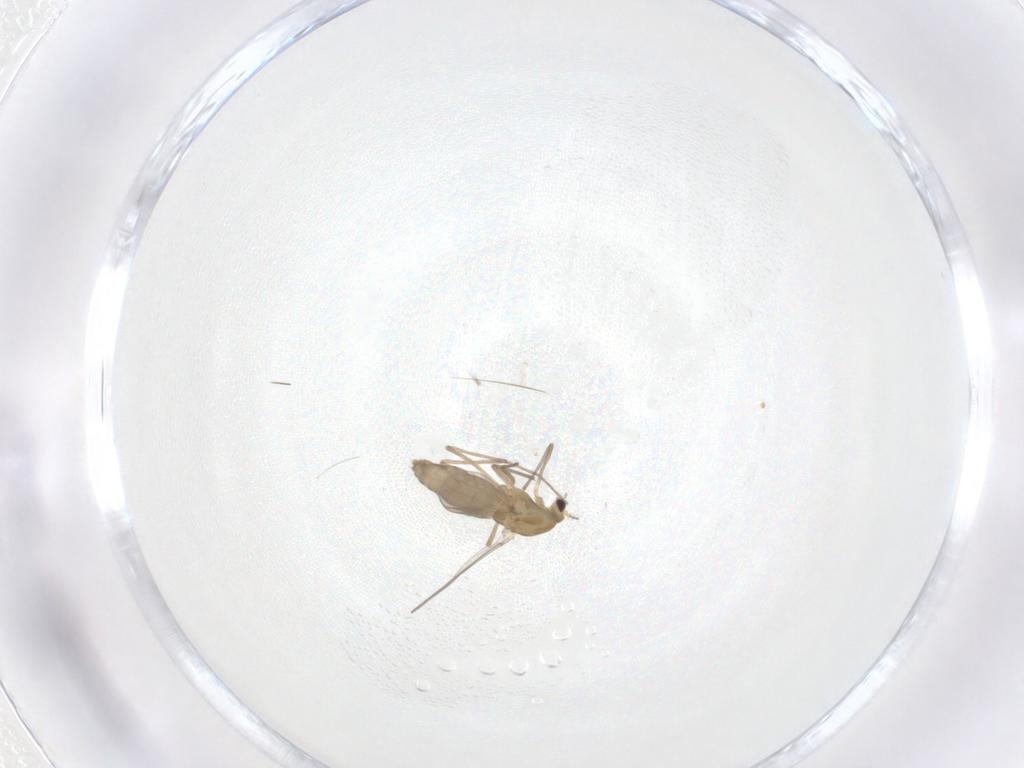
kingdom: Animalia
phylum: Arthropoda
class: Insecta
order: Diptera
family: Chironomidae
